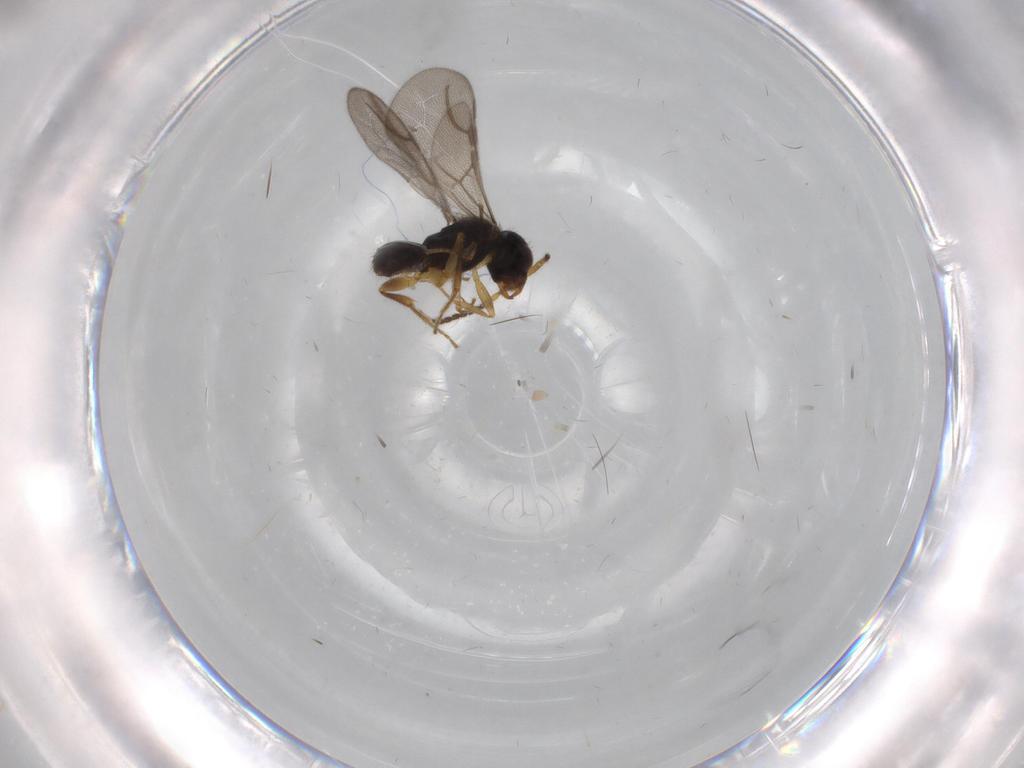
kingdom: Animalia
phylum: Arthropoda
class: Insecta
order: Hymenoptera
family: Bethylidae
